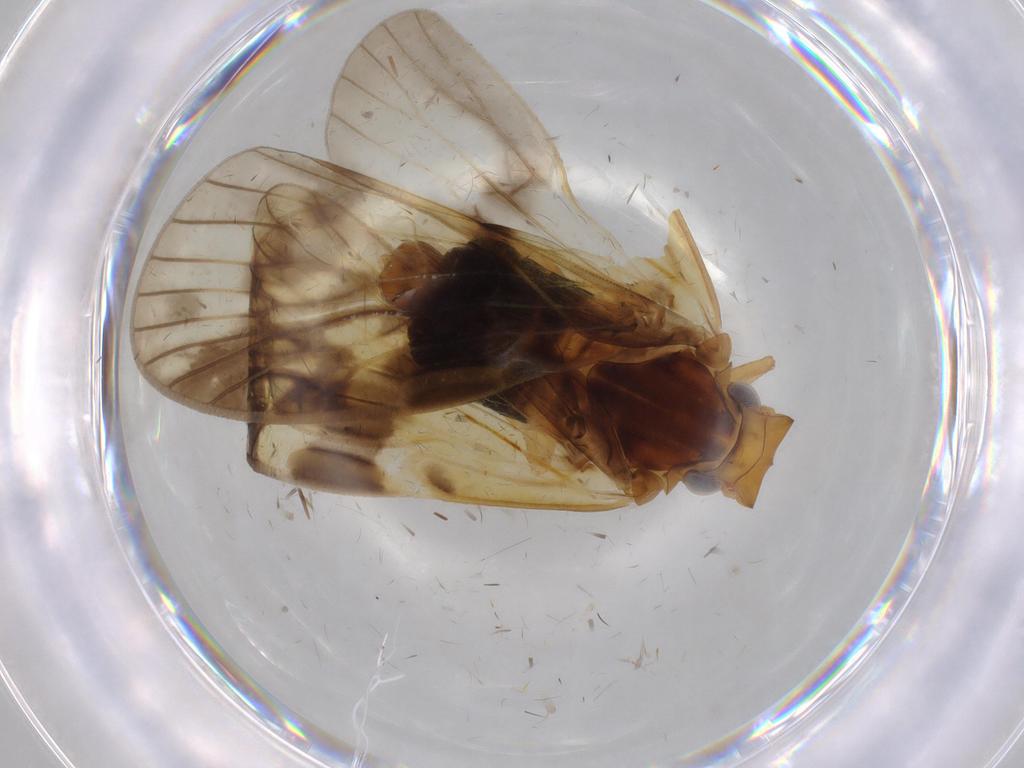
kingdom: Animalia
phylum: Arthropoda
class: Insecta
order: Hemiptera
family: Cixiidae
